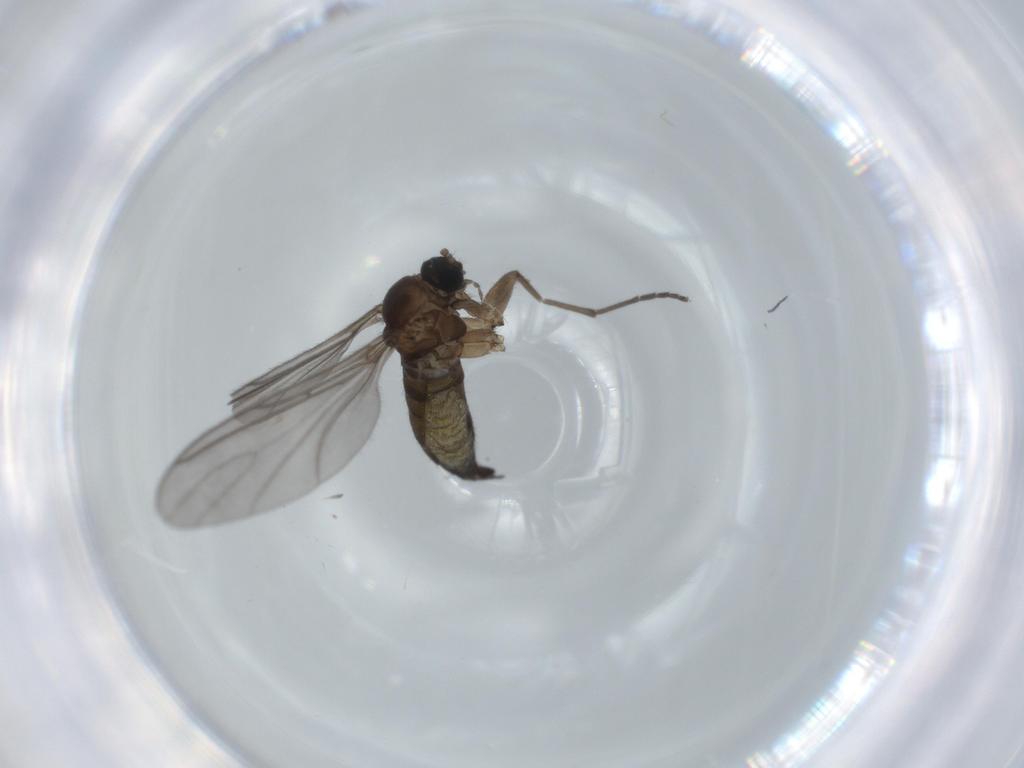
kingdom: Animalia
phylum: Arthropoda
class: Insecta
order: Diptera
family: Sciaridae
